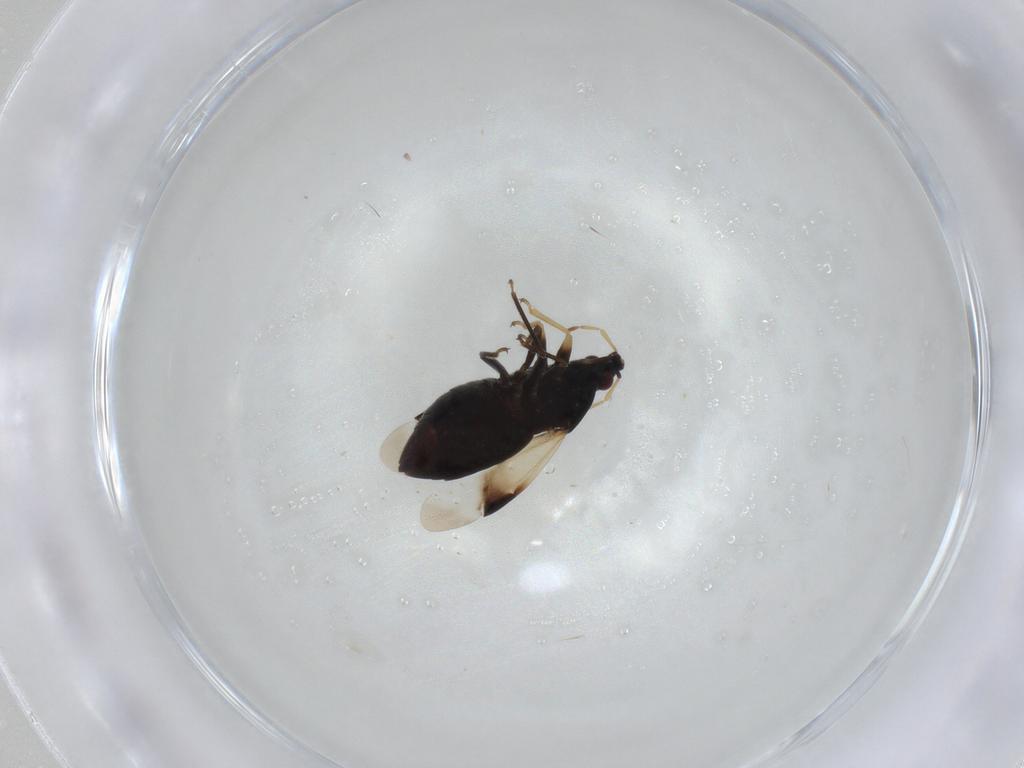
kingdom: Animalia
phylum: Arthropoda
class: Insecta
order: Hemiptera
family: Anthocoridae
